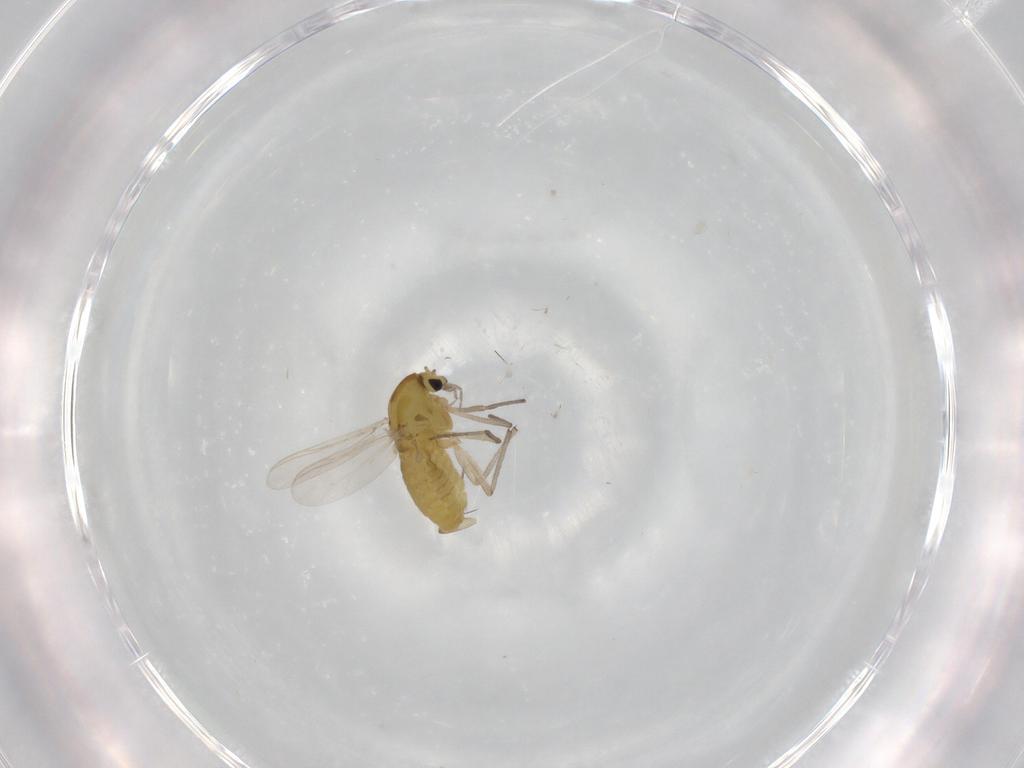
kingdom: Animalia
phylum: Arthropoda
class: Insecta
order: Diptera
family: Chironomidae
